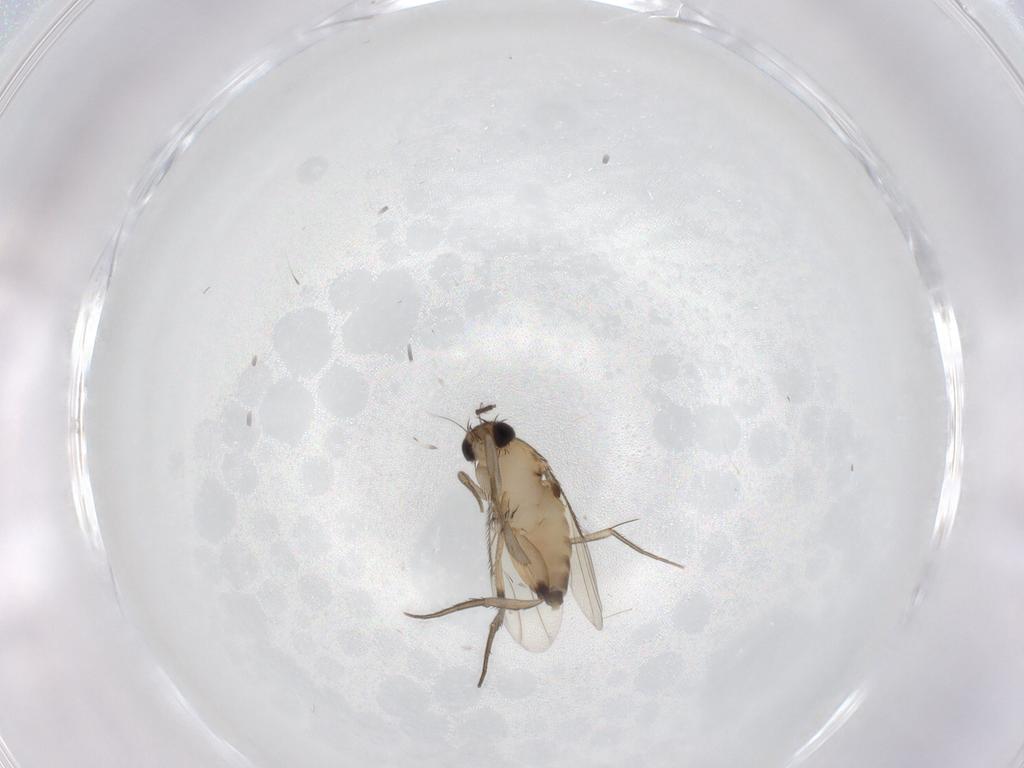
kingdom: Animalia
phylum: Arthropoda
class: Insecta
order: Diptera
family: Phoridae
